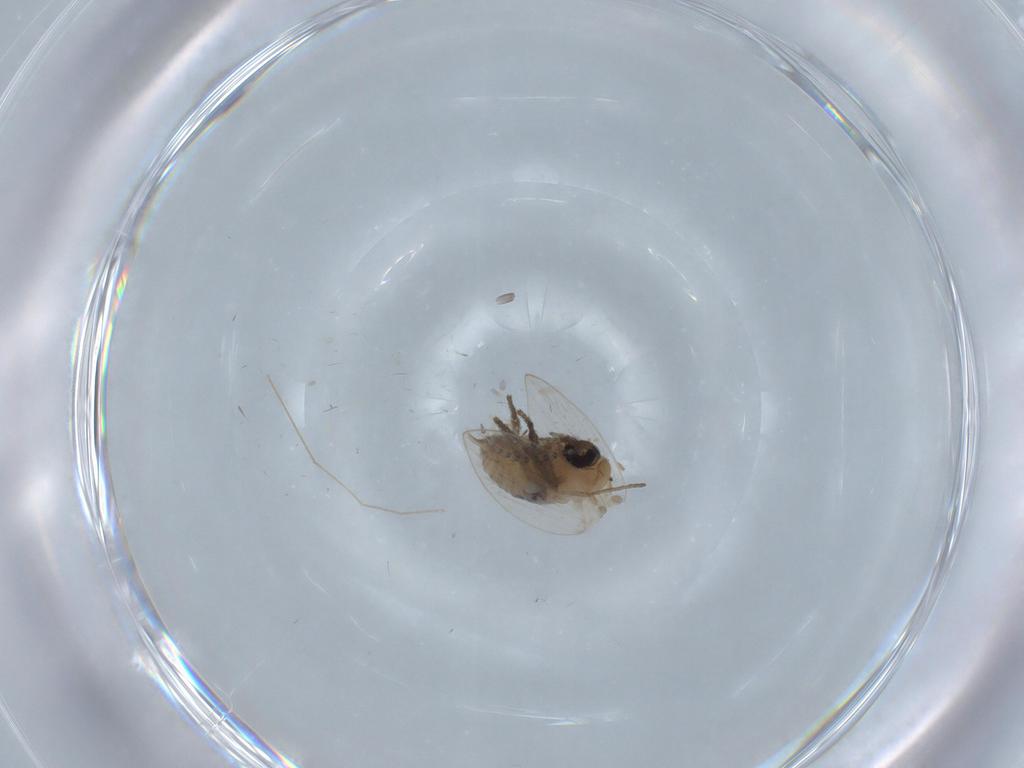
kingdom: Animalia
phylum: Arthropoda
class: Insecta
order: Diptera
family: Psychodidae
